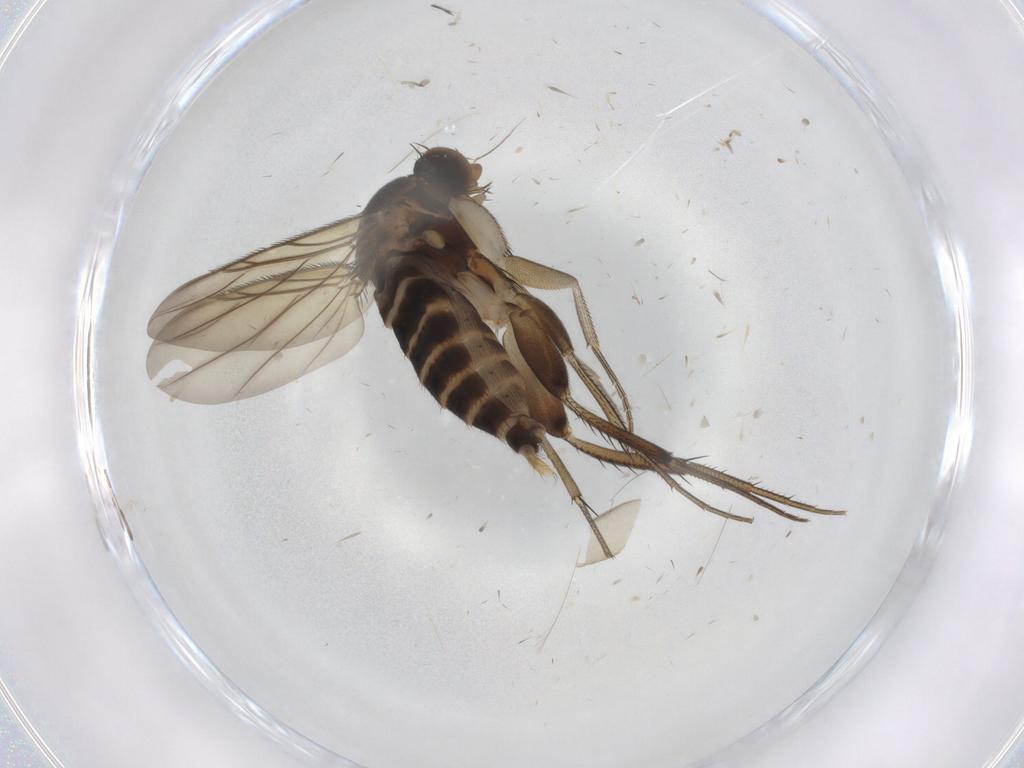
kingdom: Animalia
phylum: Arthropoda
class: Insecta
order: Diptera
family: Phoridae
